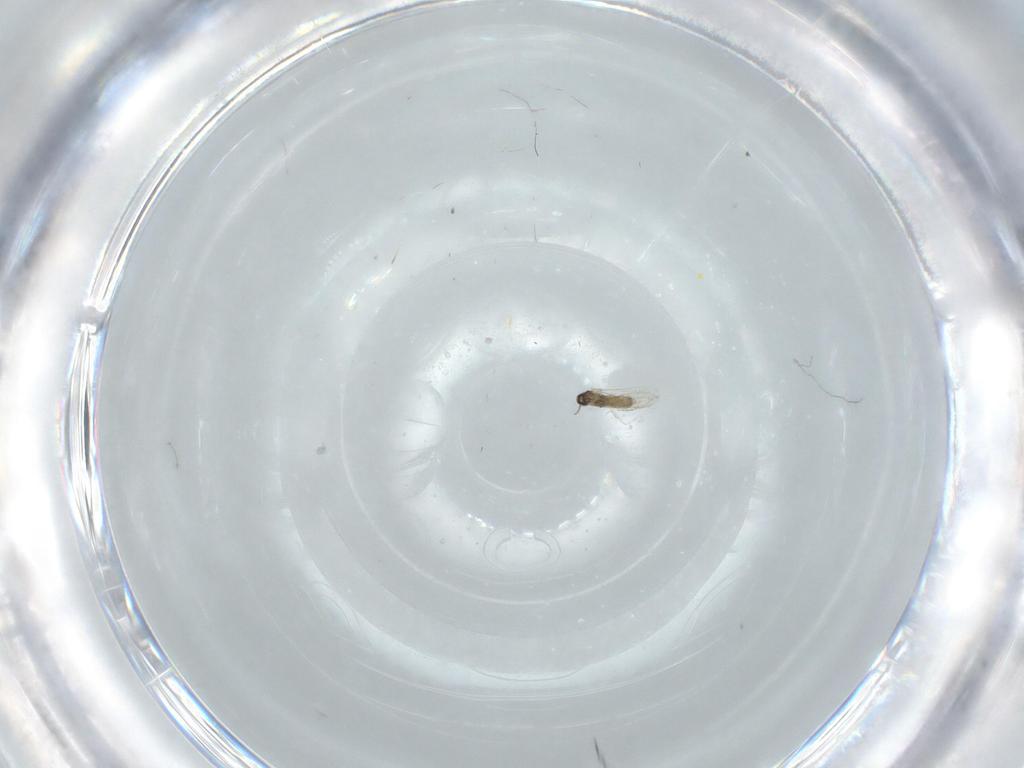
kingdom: Animalia
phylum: Arthropoda
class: Insecta
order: Diptera
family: Cecidomyiidae
